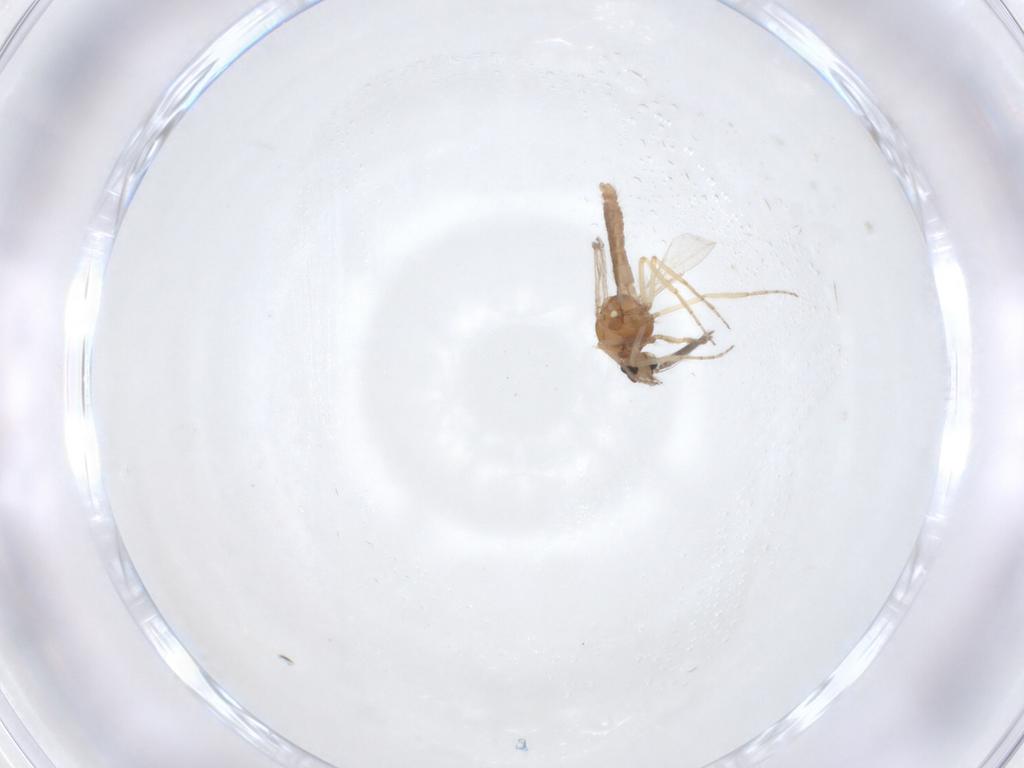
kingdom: Animalia
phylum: Arthropoda
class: Insecta
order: Diptera
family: Ceratopogonidae
